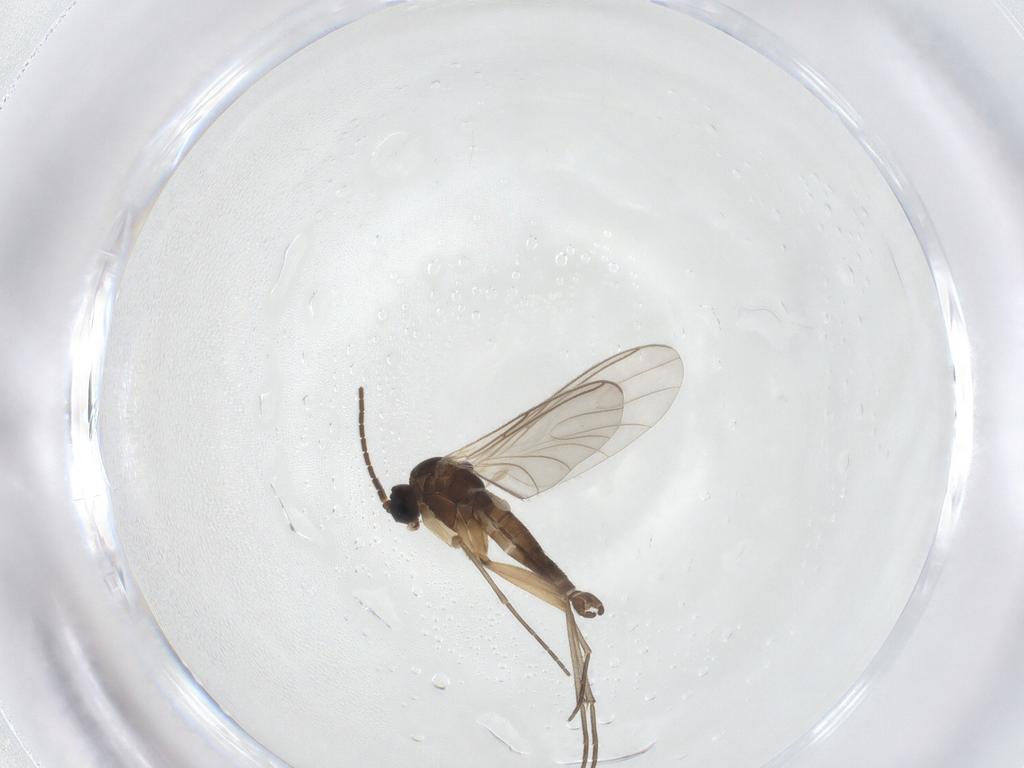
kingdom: Animalia
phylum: Arthropoda
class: Insecta
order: Diptera
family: Sciaridae
